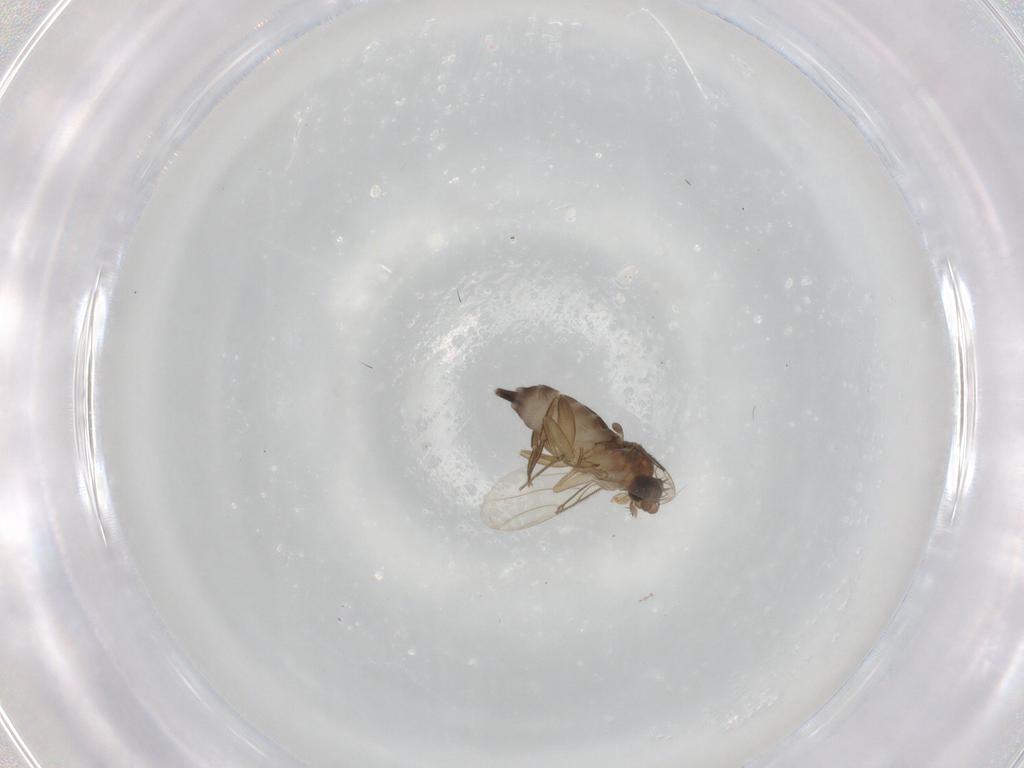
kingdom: Animalia
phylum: Arthropoda
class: Insecta
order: Diptera
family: Phoridae
